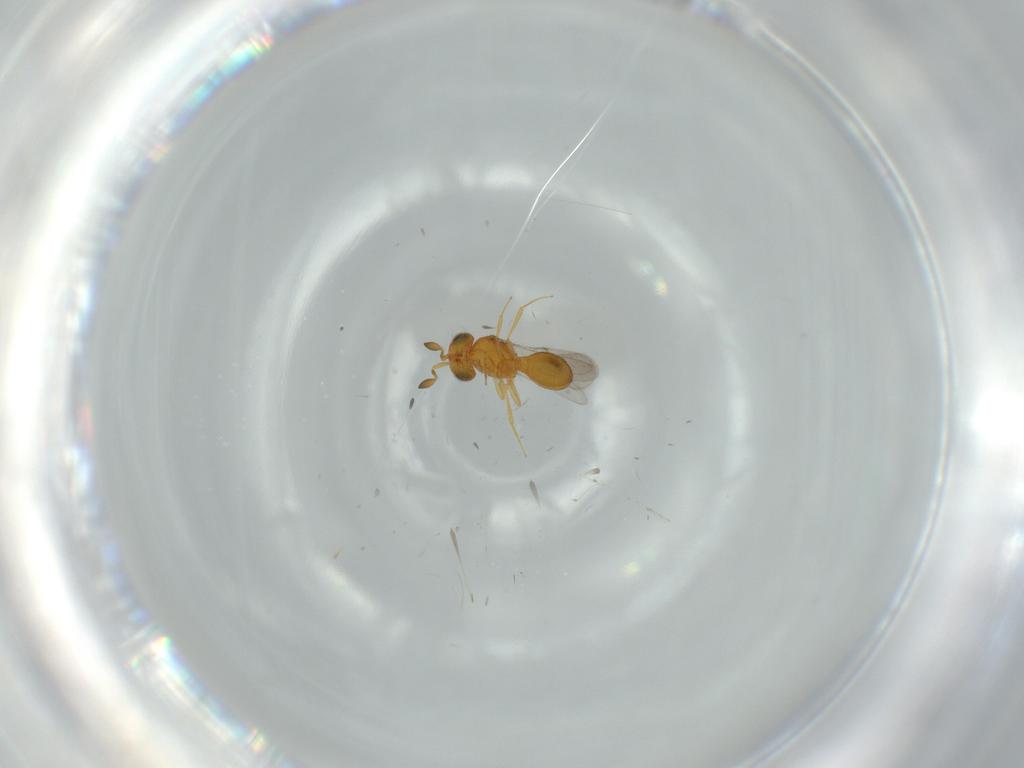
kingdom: Animalia
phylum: Arthropoda
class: Insecta
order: Hymenoptera
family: Scelionidae
